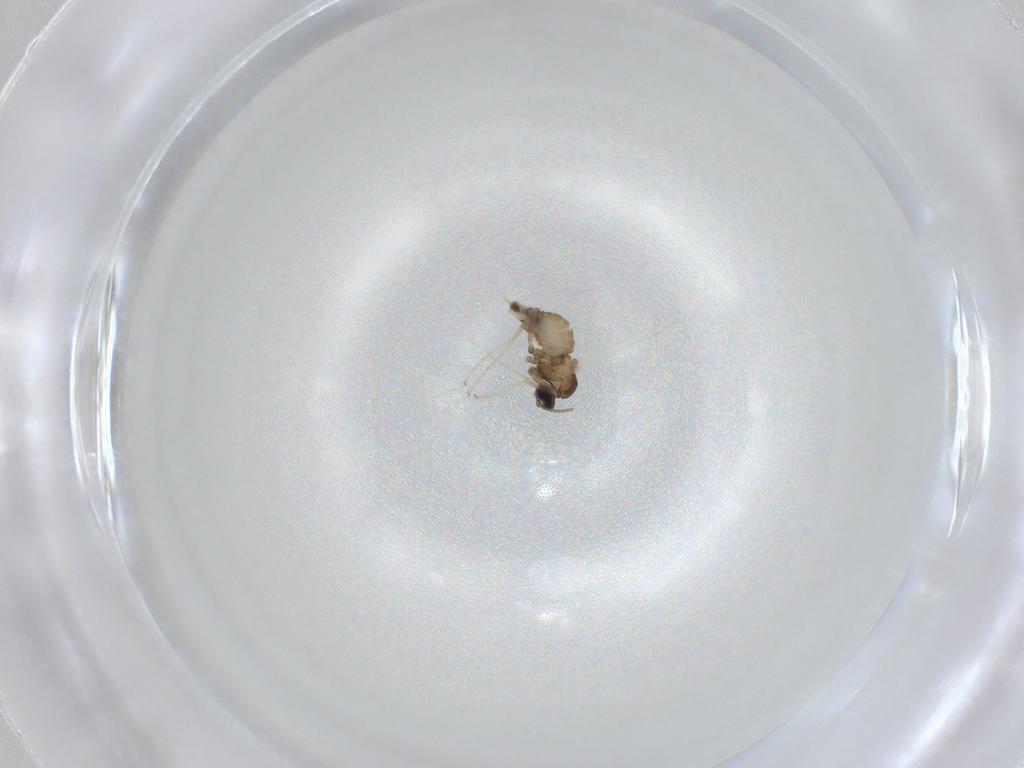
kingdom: Animalia
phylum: Arthropoda
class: Insecta
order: Diptera
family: Cecidomyiidae
